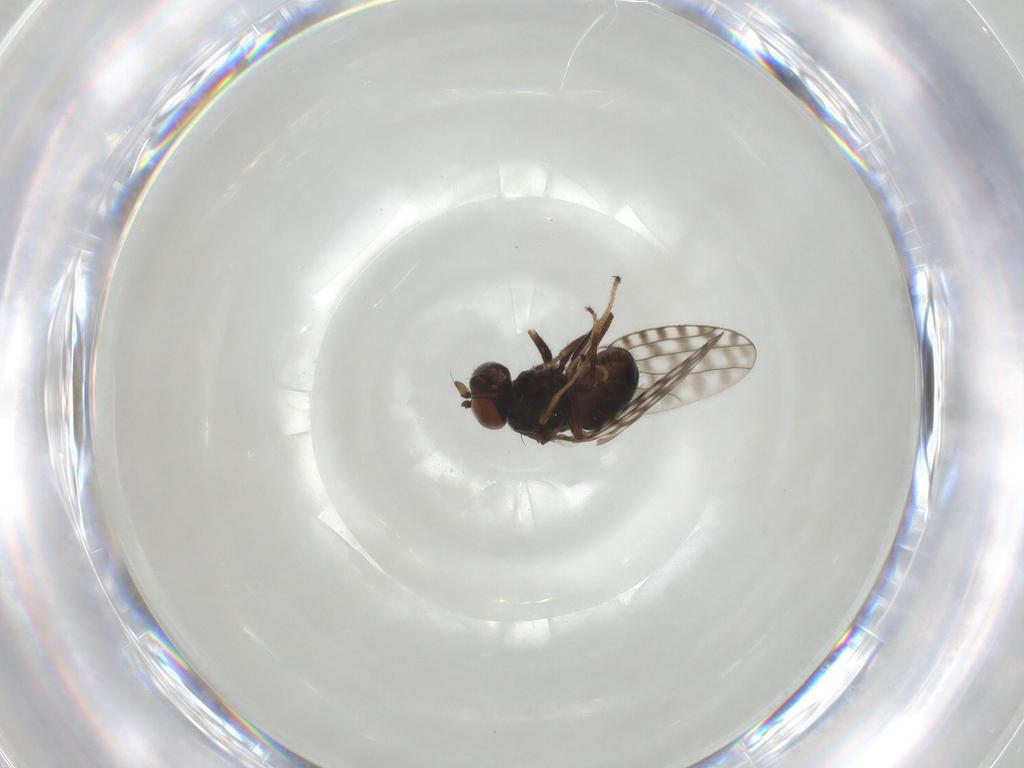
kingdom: Animalia
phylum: Arthropoda
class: Insecta
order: Diptera
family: Ephydridae
